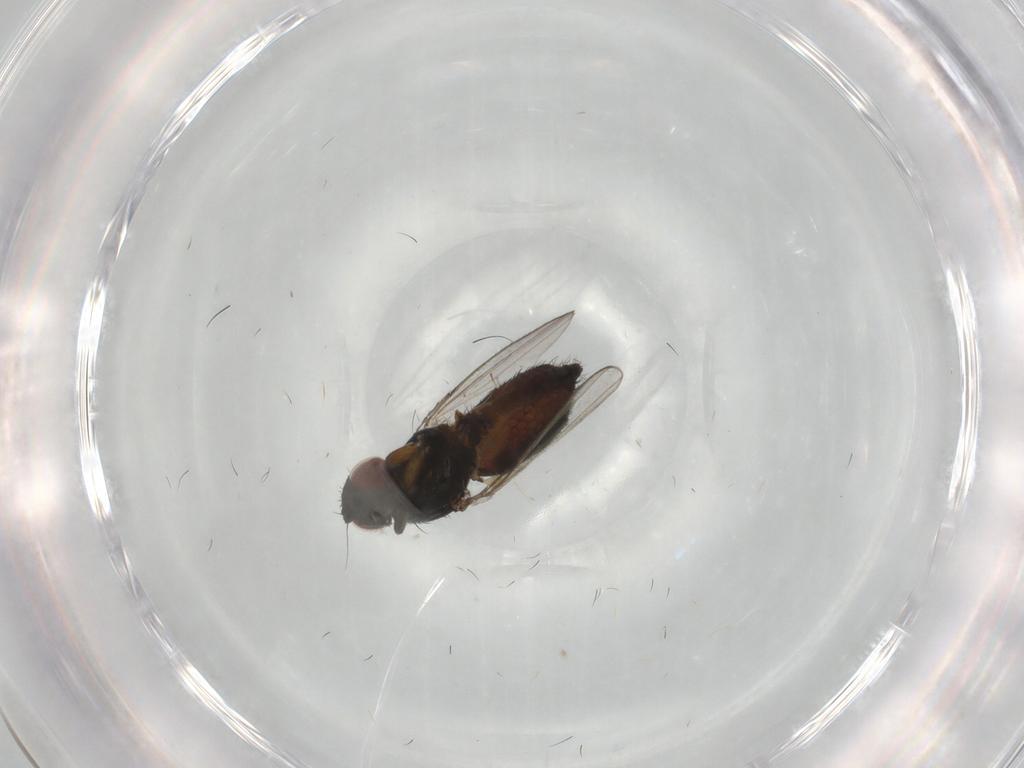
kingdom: Animalia
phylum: Arthropoda
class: Insecta
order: Diptera
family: Milichiidae
